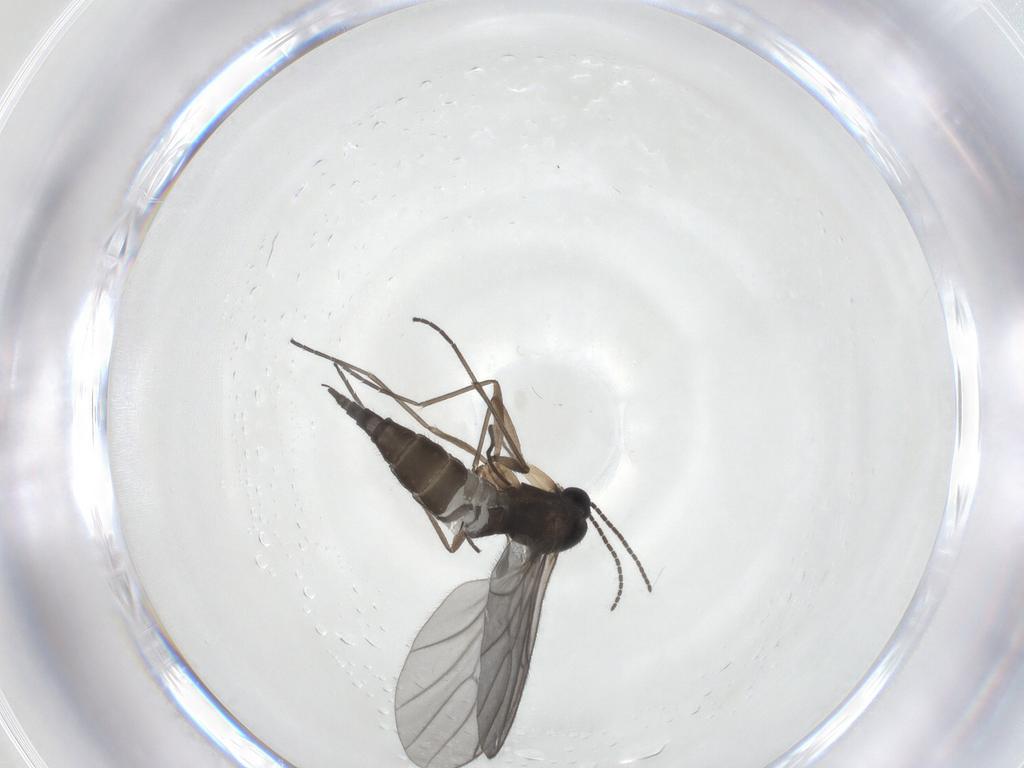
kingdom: Animalia
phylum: Arthropoda
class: Insecta
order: Diptera
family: Sciaridae
